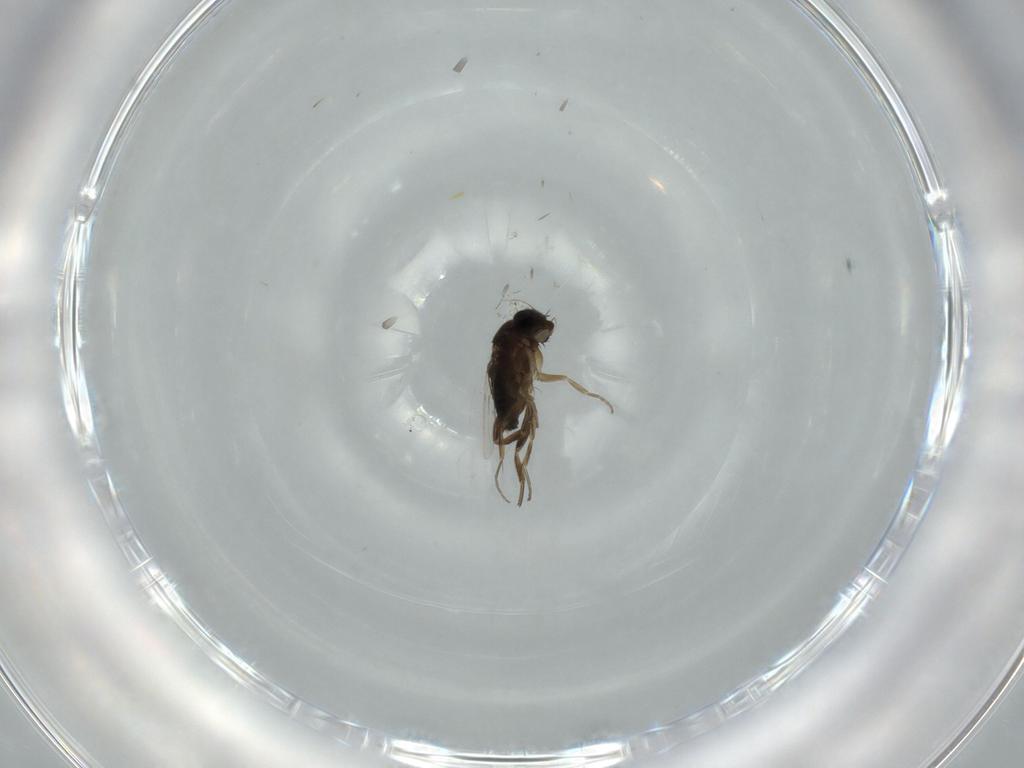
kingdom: Animalia
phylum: Arthropoda
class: Insecta
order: Diptera
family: Phoridae
